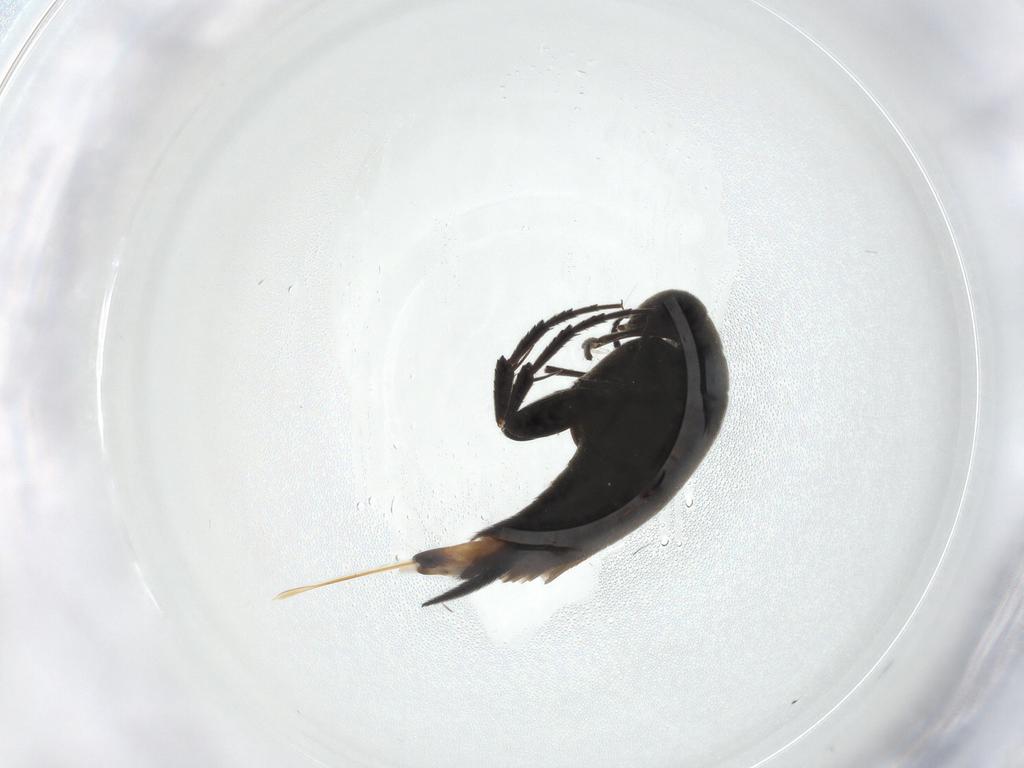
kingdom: Animalia
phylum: Arthropoda
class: Insecta
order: Coleoptera
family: Mordellidae
